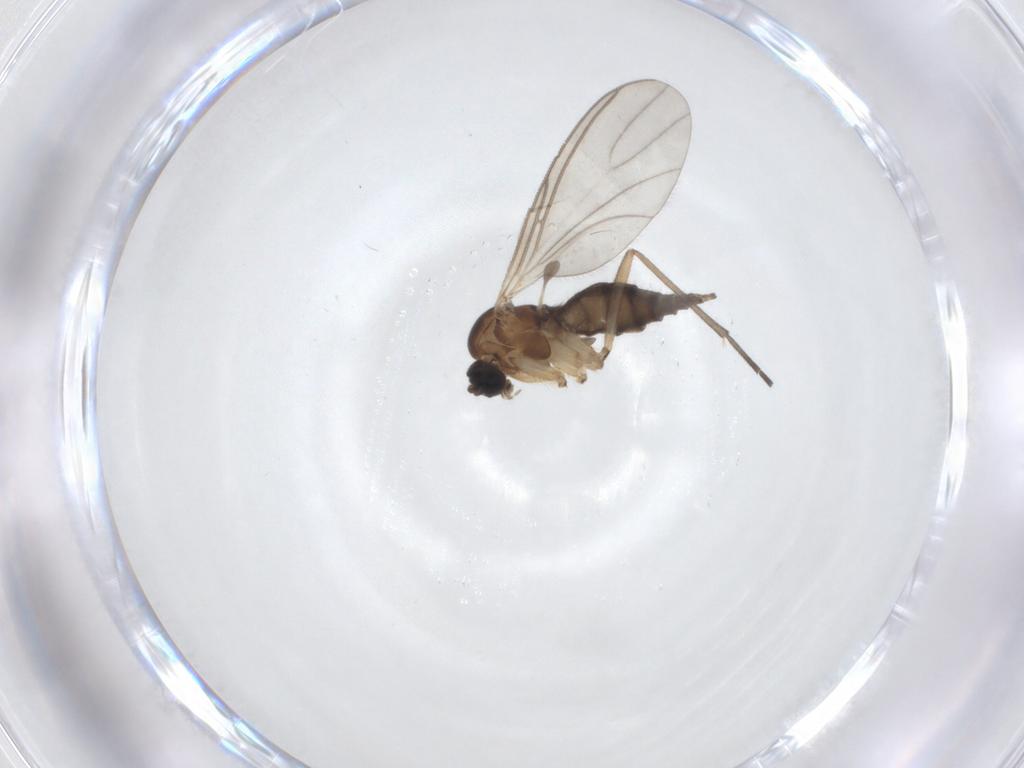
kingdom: Animalia
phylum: Arthropoda
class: Insecta
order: Diptera
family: Sciaridae
